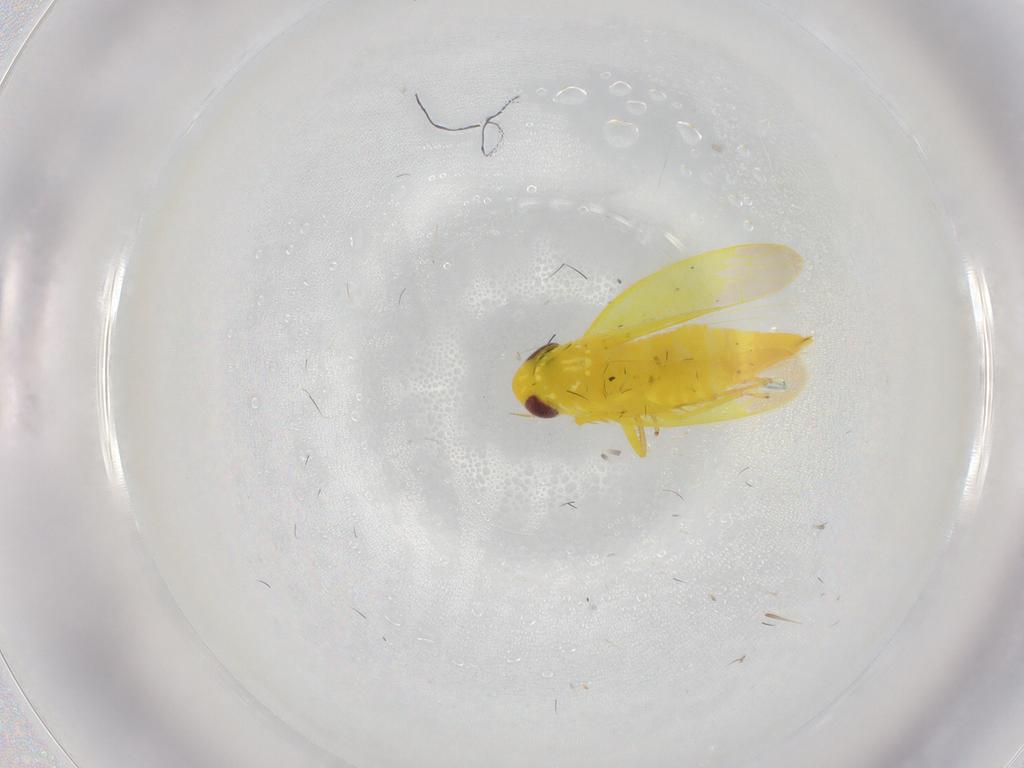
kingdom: Animalia
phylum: Arthropoda
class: Insecta
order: Hemiptera
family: Cicadellidae
